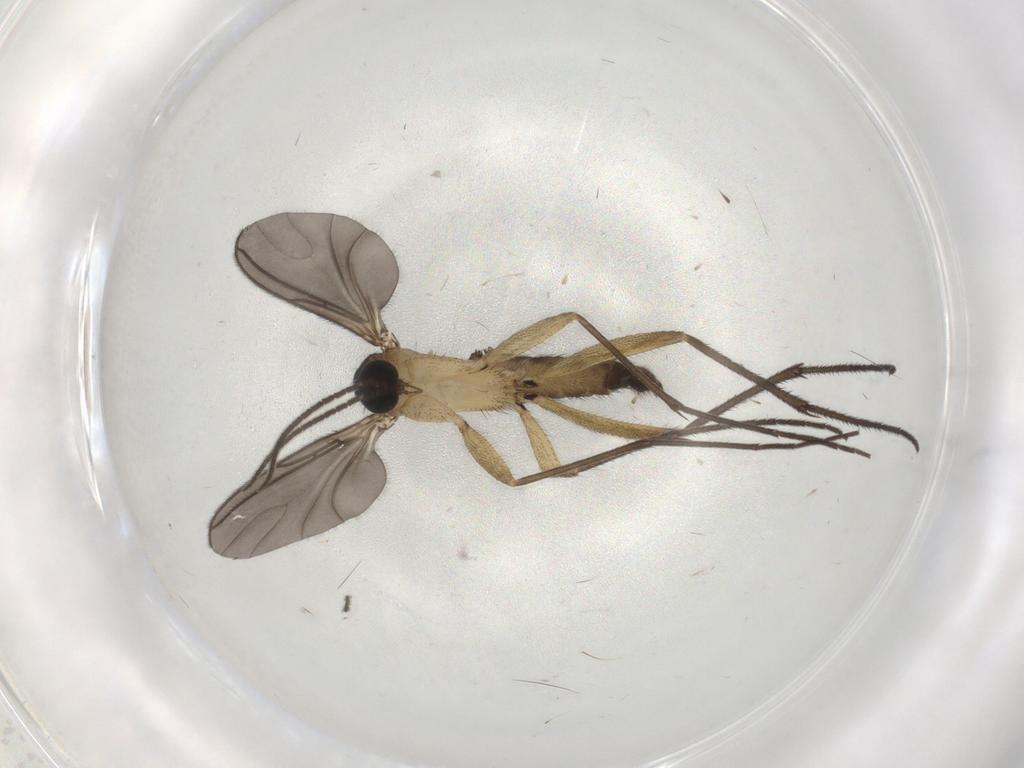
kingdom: Animalia
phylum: Arthropoda
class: Insecta
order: Diptera
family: Sciaridae
